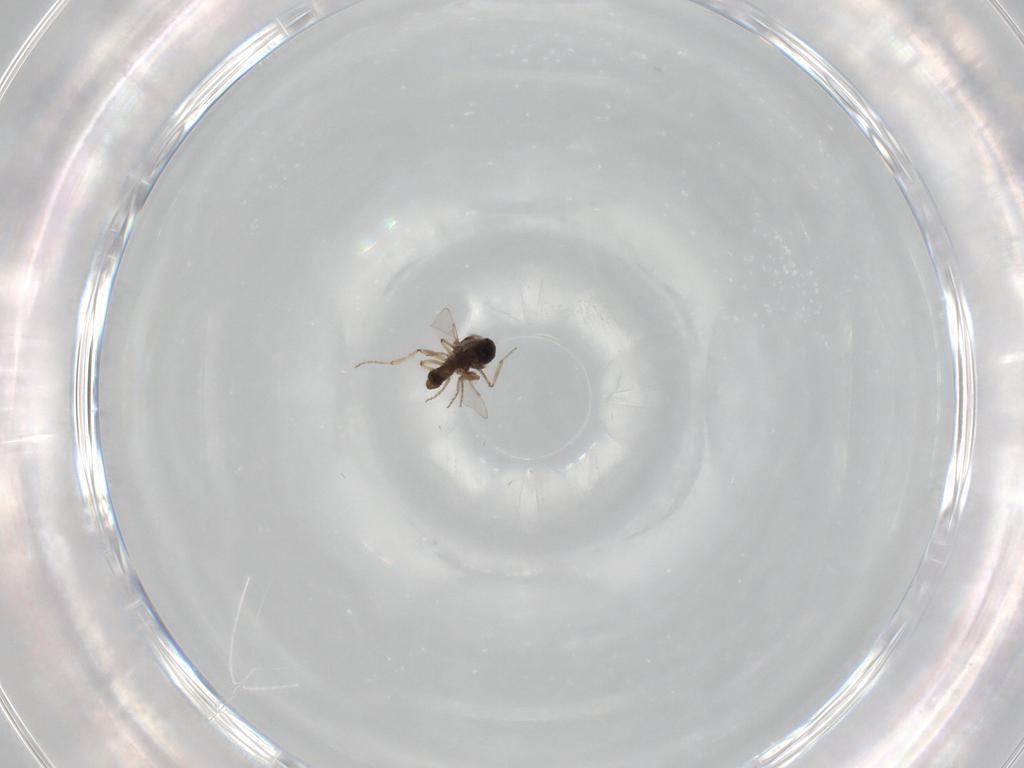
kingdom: Animalia
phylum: Arthropoda
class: Insecta
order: Diptera
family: Ceratopogonidae
